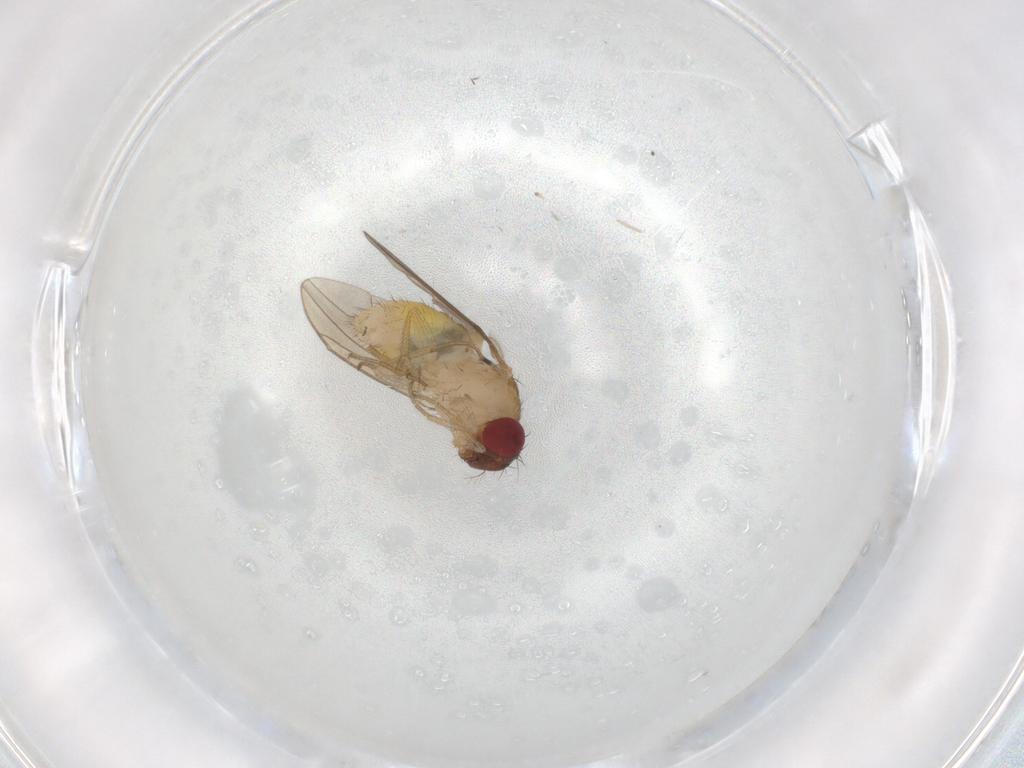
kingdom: Animalia
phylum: Arthropoda
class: Insecta
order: Diptera
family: Drosophilidae
